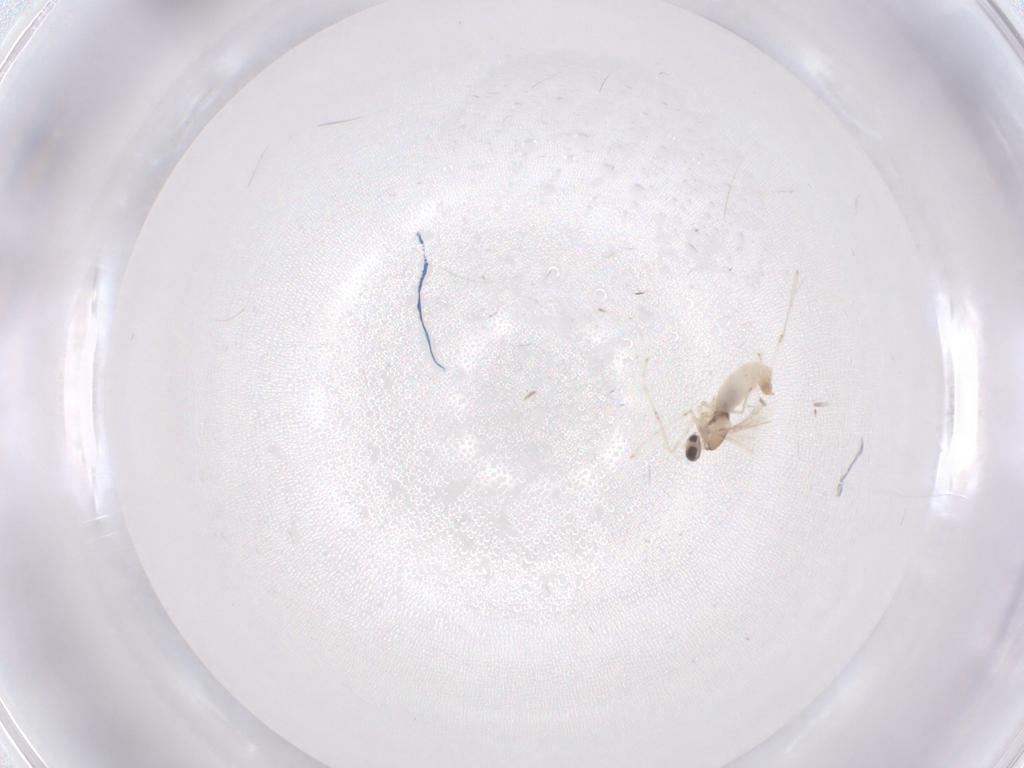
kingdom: Animalia
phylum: Arthropoda
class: Insecta
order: Diptera
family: Cecidomyiidae
